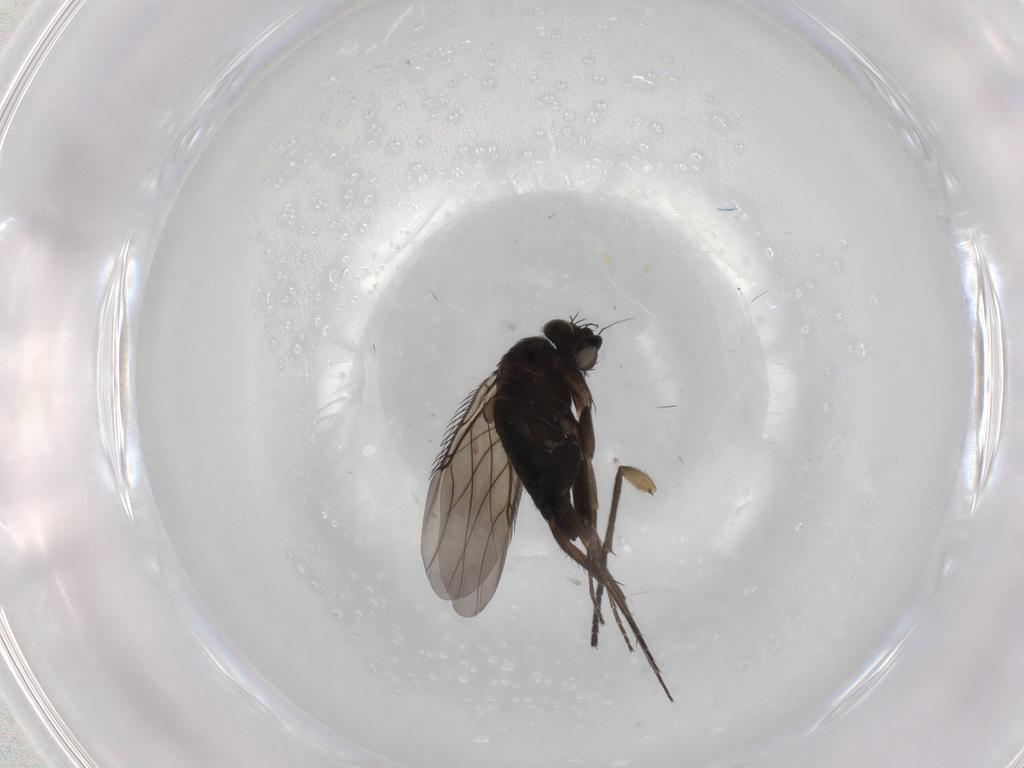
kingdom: Animalia
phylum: Arthropoda
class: Insecta
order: Diptera
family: Phoridae
